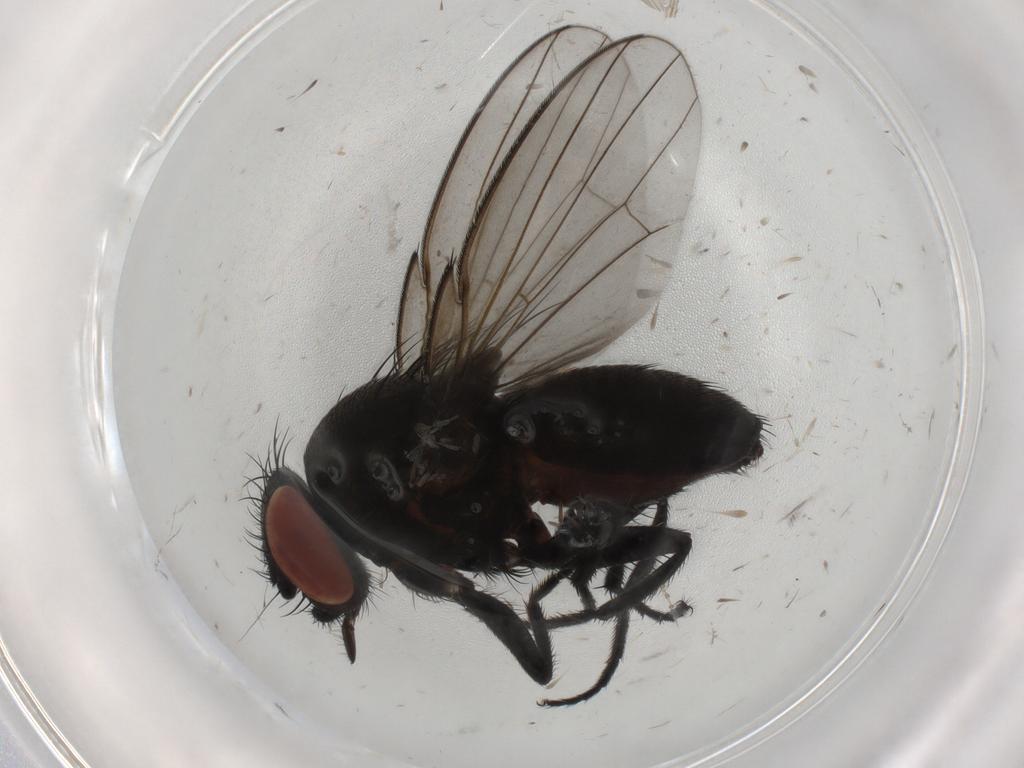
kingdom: Animalia
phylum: Arthropoda
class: Insecta
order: Diptera
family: Milichiidae
